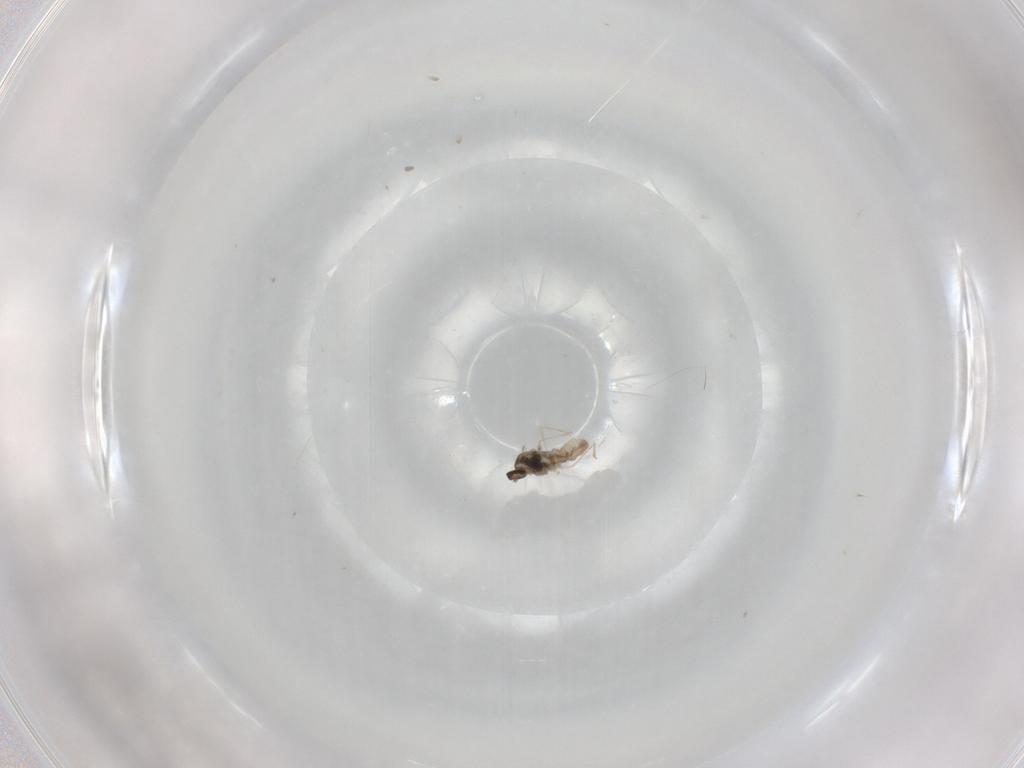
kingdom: Animalia
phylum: Arthropoda
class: Insecta
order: Diptera
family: Cecidomyiidae
